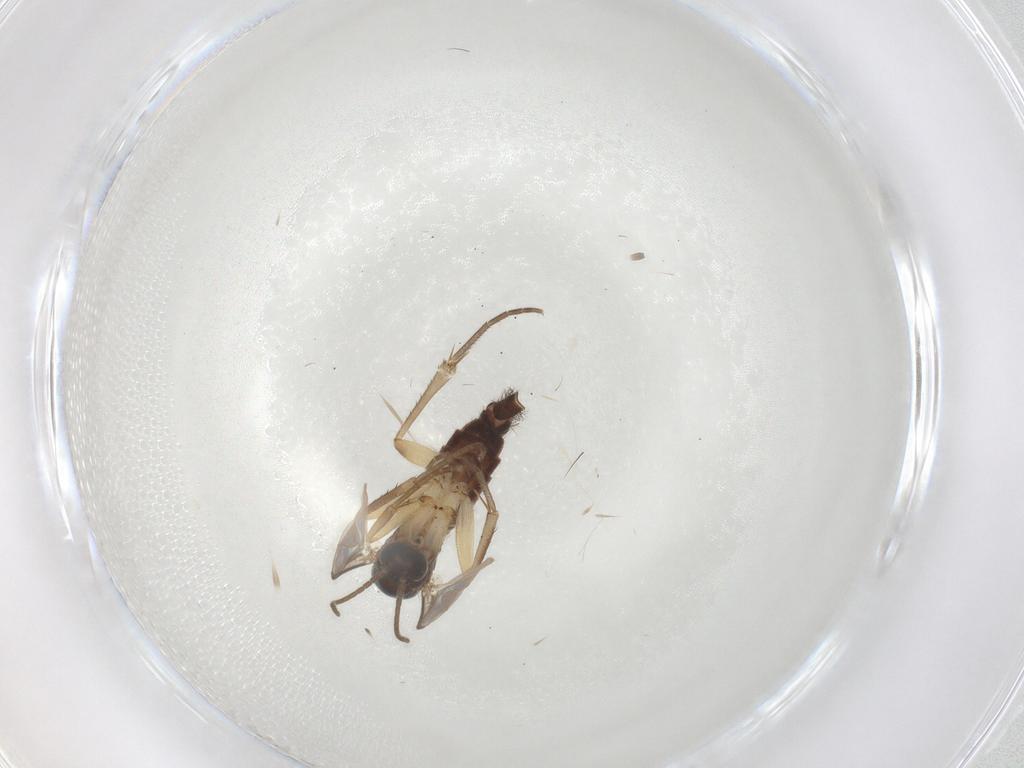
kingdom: Animalia
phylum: Arthropoda
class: Insecta
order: Diptera
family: Mycetophilidae
